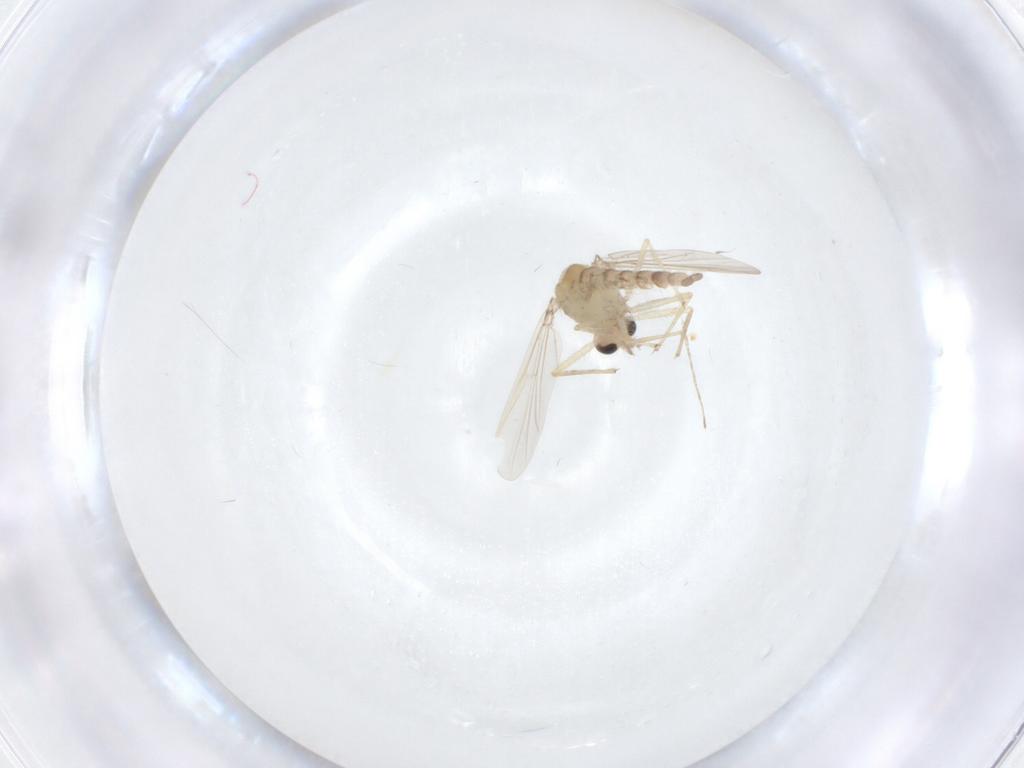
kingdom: Animalia
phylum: Arthropoda
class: Insecta
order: Diptera
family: Chironomidae
